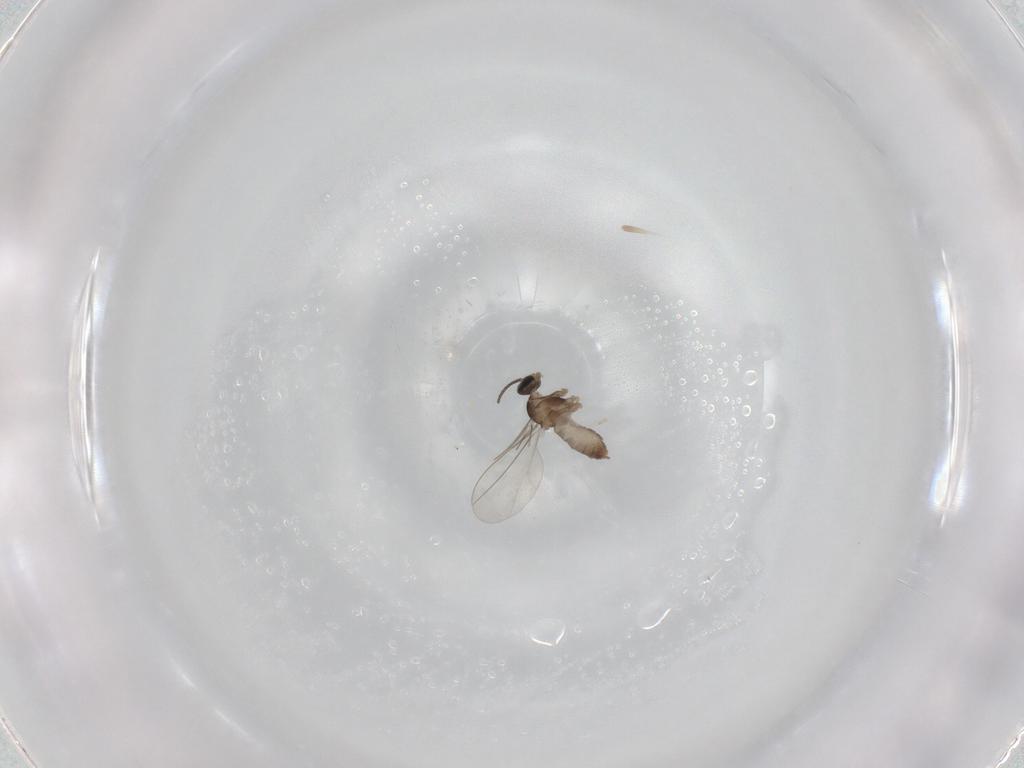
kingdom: Animalia
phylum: Arthropoda
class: Insecta
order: Diptera
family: Cecidomyiidae
